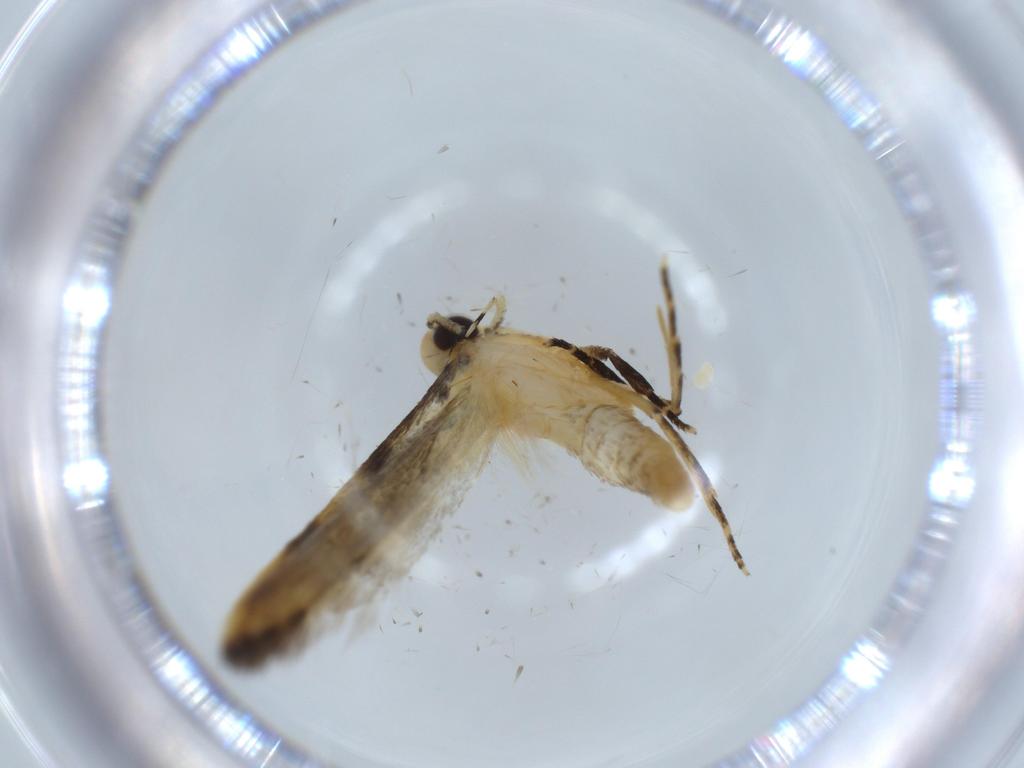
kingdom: Animalia
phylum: Arthropoda
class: Insecta
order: Lepidoptera
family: Autostichidae
